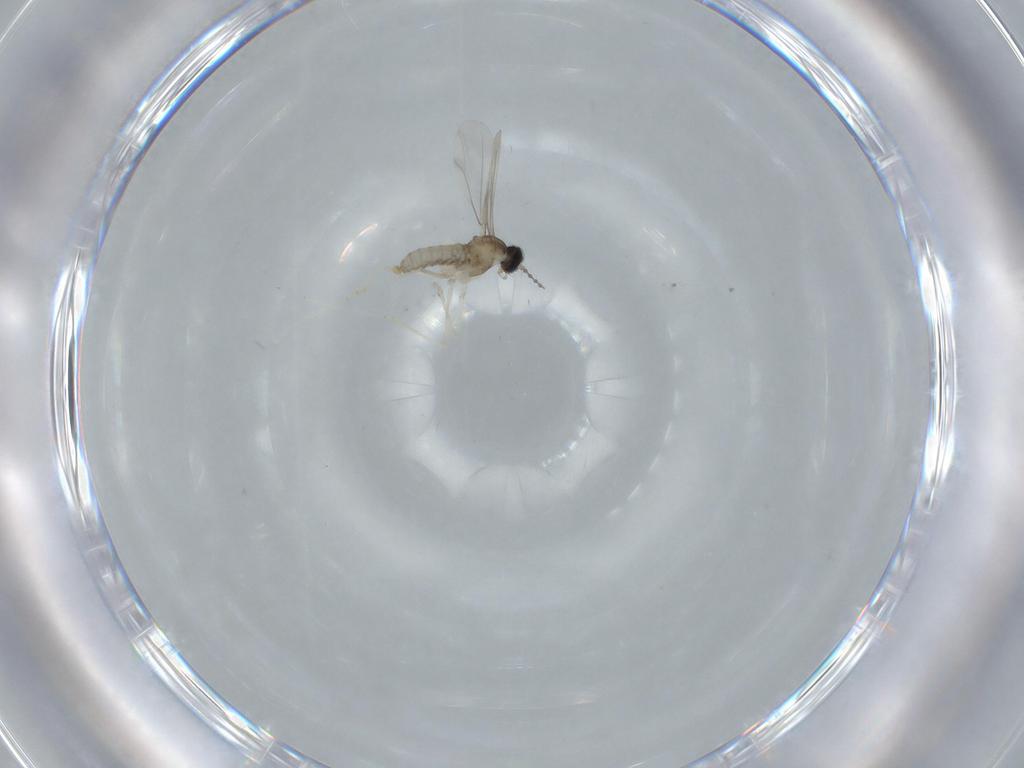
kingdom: Animalia
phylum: Arthropoda
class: Insecta
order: Diptera
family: Cecidomyiidae
